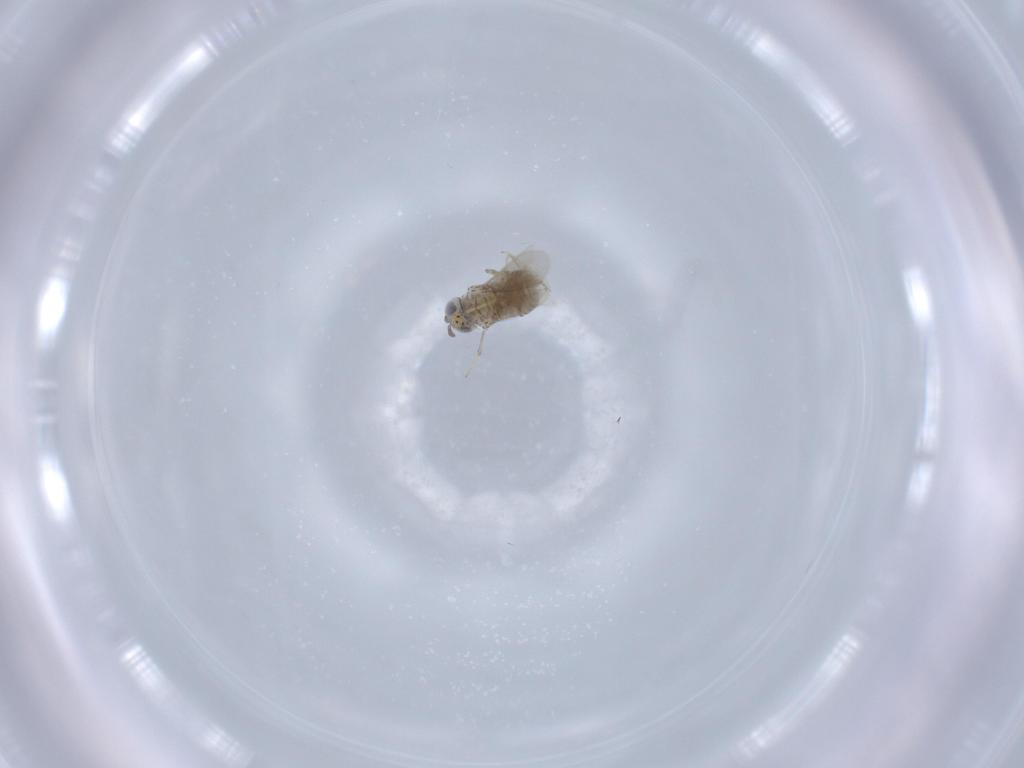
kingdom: Animalia
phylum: Arthropoda
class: Insecta
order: Hymenoptera
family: Aphelinidae
